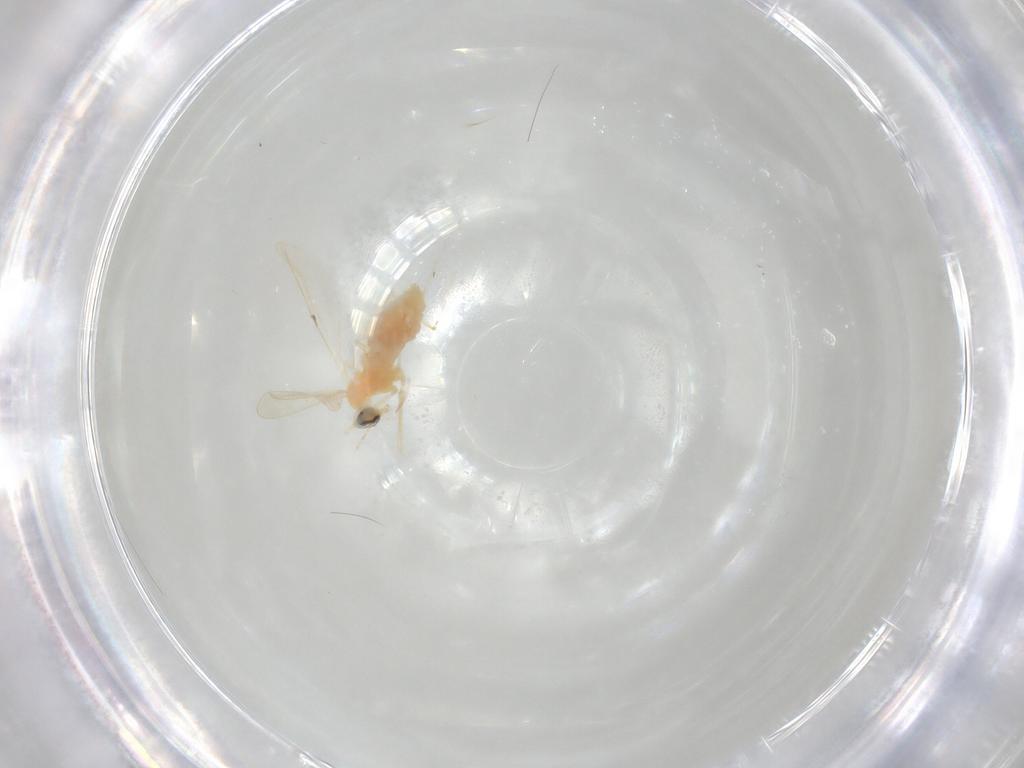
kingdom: Animalia
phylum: Arthropoda
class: Insecta
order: Diptera
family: Cecidomyiidae
